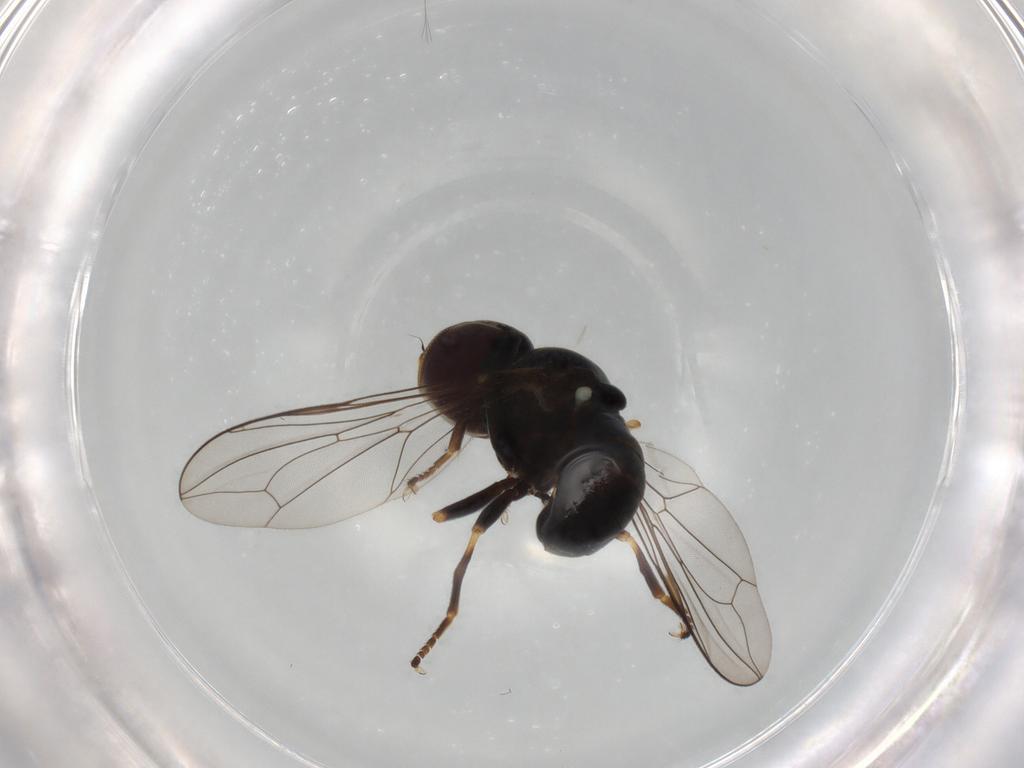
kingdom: Animalia
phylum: Arthropoda
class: Insecta
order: Diptera
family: Pipunculidae
